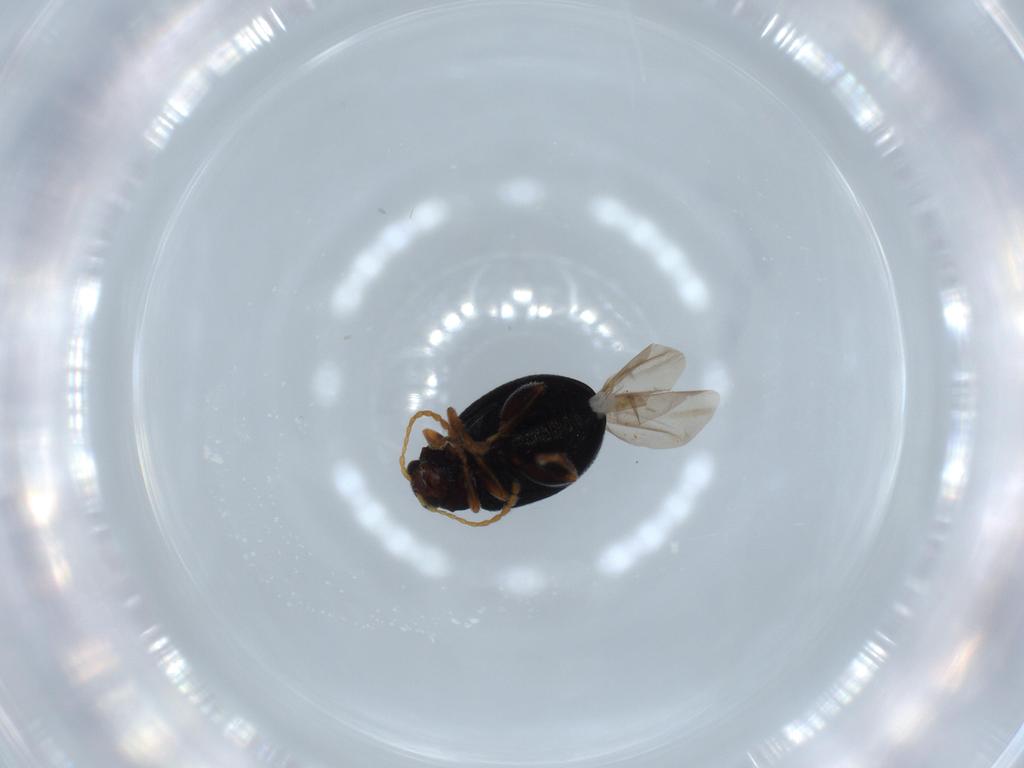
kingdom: Animalia
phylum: Arthropoda
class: Insecta
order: Coleoptera
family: Chrysomelidae
